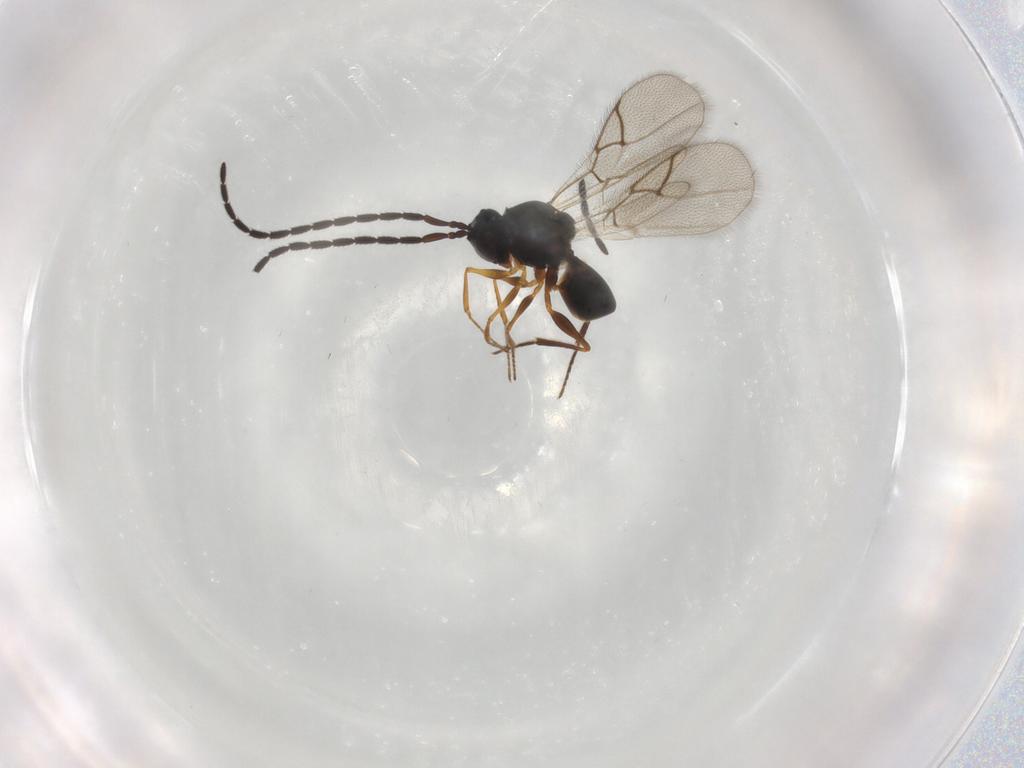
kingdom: Animalia
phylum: Arthropoda
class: Insecta
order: Hymenoptera
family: Figitidae
